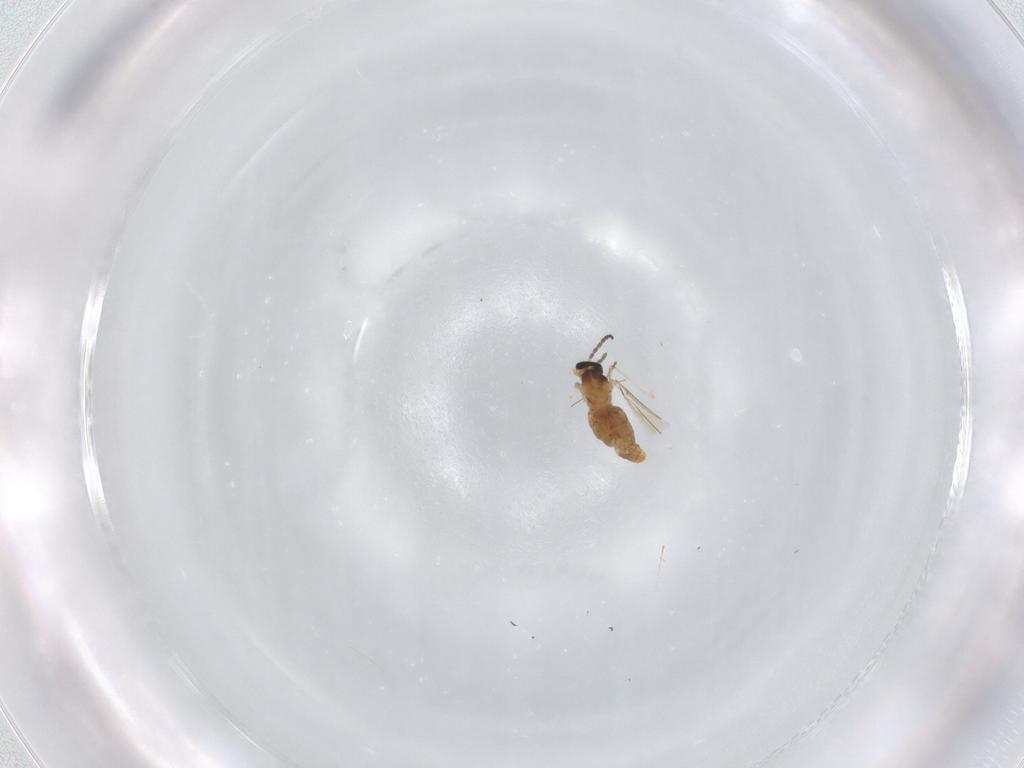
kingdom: Animalia
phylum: Arthropoda
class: Insecta
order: Diptera
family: Cecidomyiidae
